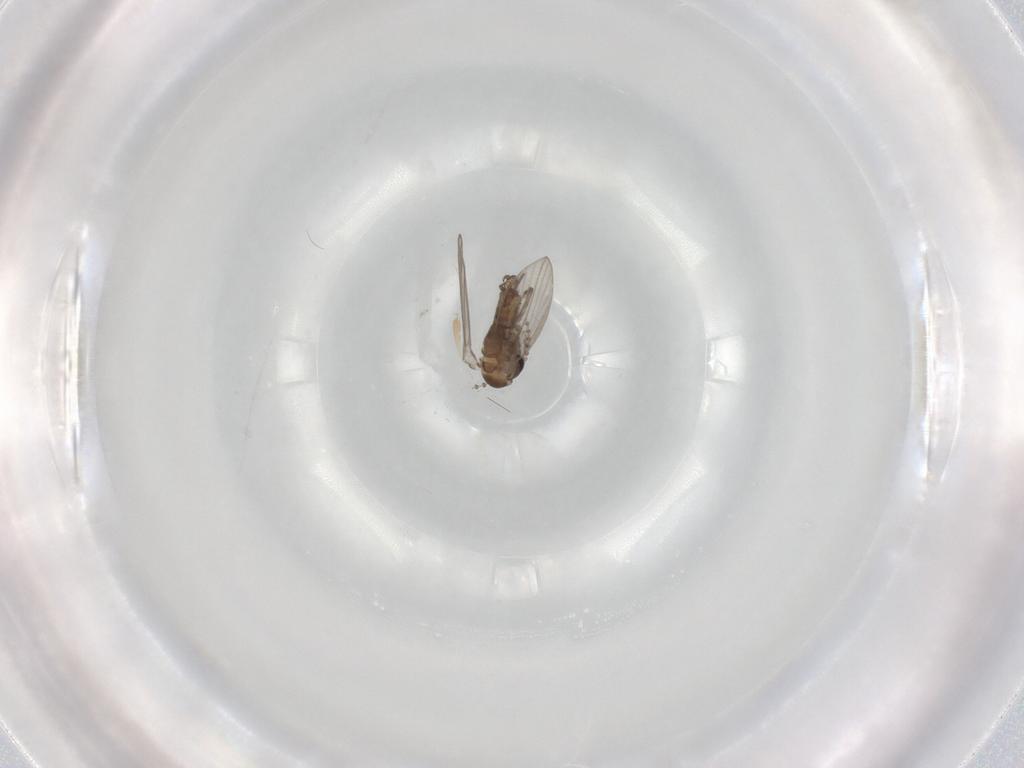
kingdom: Animalia
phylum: Arthropoda
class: Insecta
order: Diptera
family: Psychodidae
